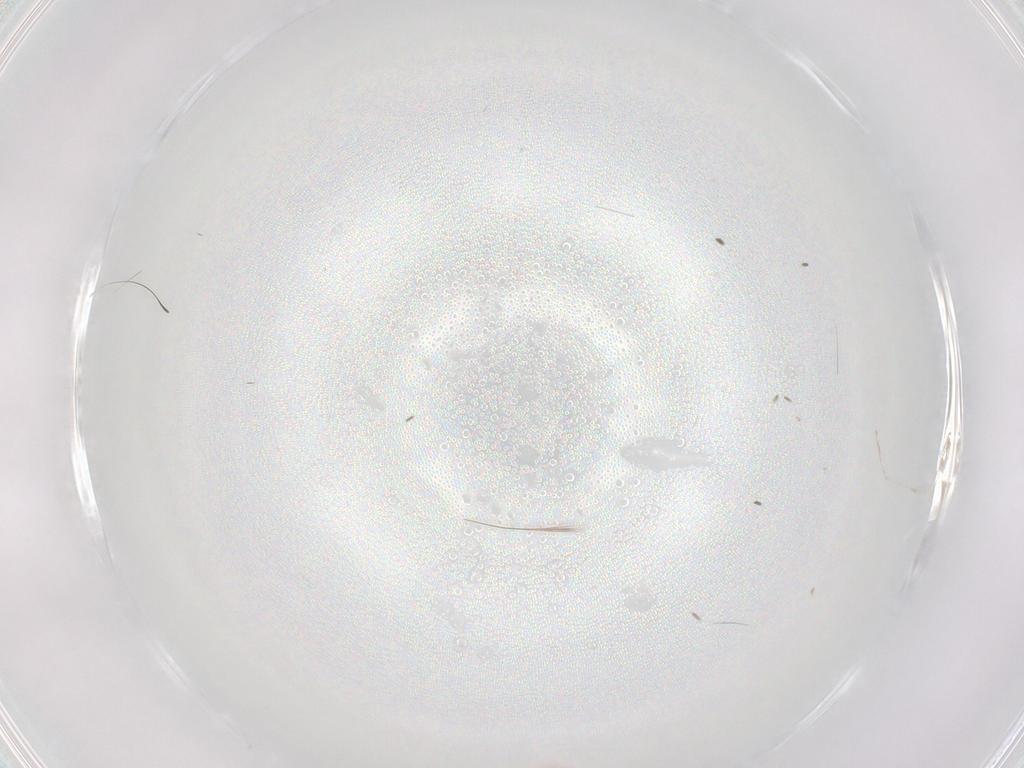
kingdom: Animalia
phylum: Arthropoda
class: Insecta
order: Hemiptera
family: Aleyrodidae
